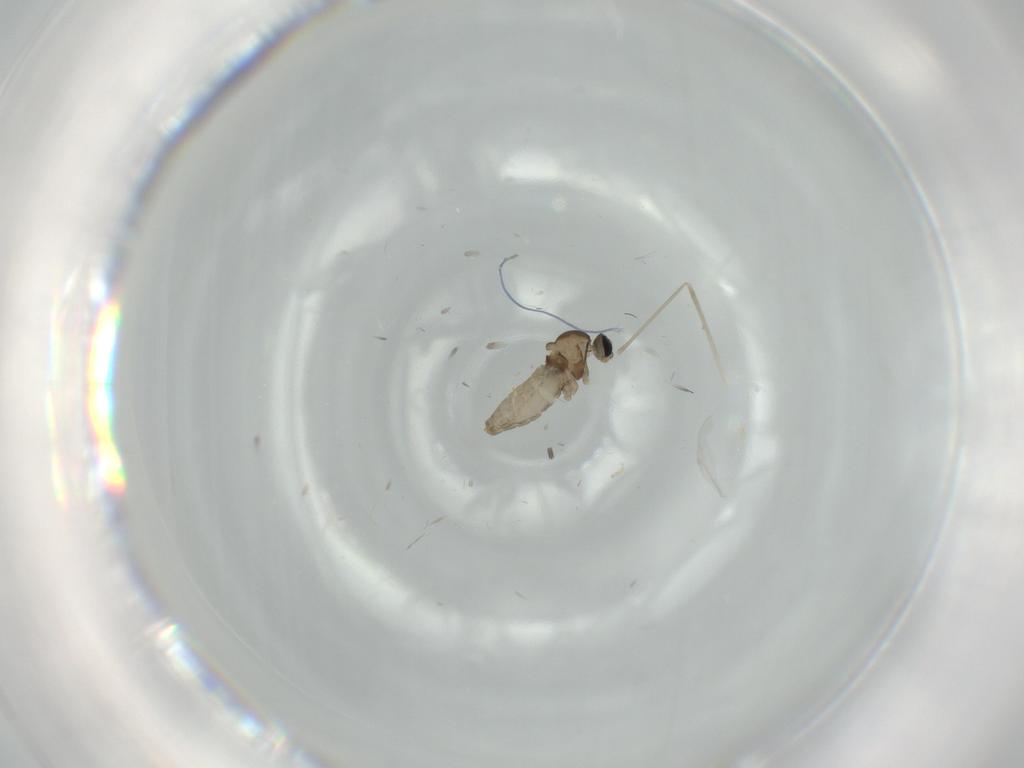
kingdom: Animalia
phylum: Arthropoda
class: Insecta
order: Diptera
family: Cecidomyiidae
